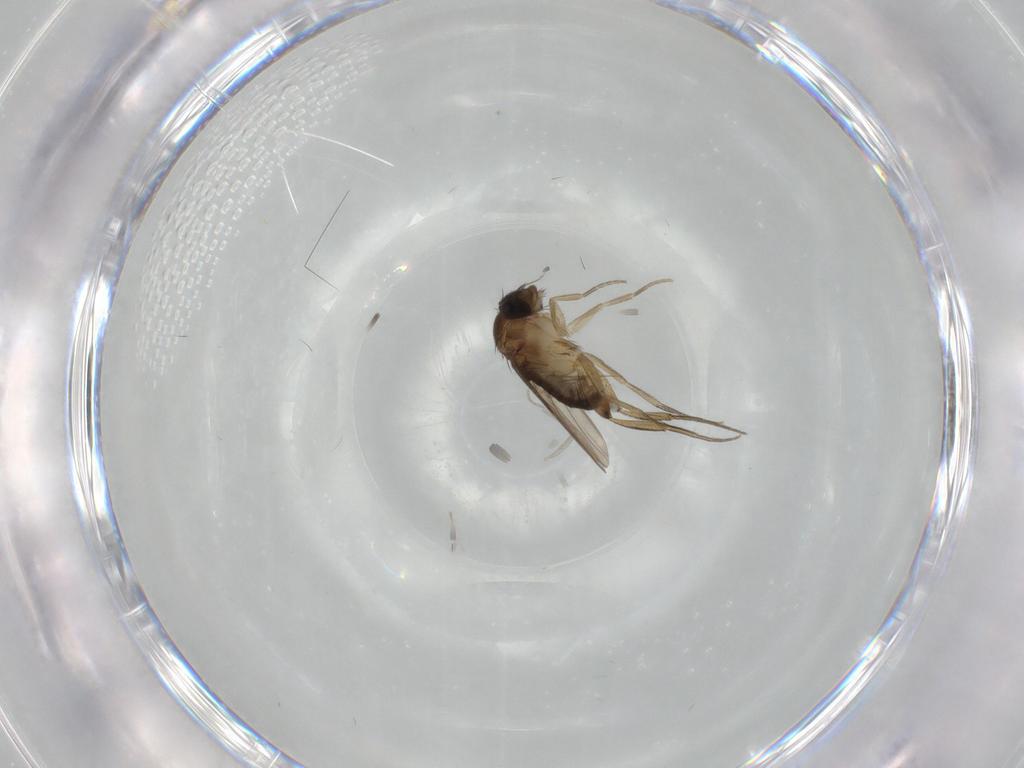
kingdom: Animalia
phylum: Arthropoda
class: Insecta
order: Diptera
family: Phoridae
